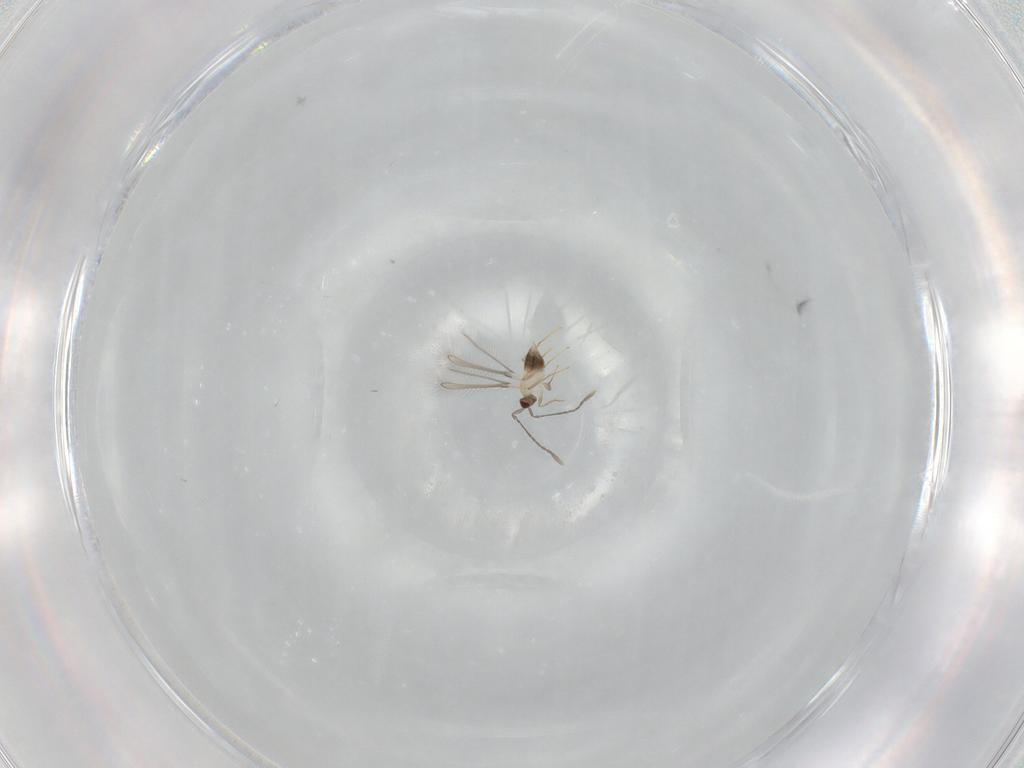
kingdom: Animalia
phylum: Arthropoda
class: Insecta
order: Hymenoptera
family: Mymaridae
